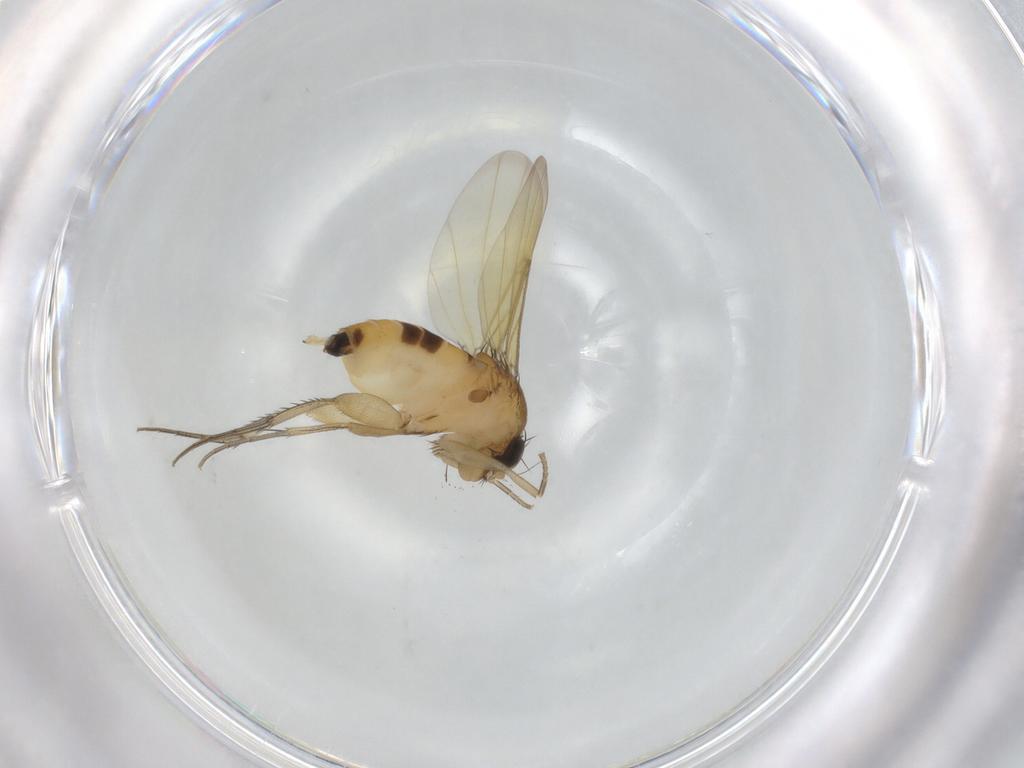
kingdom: Animalia
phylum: Arthropoda
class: Insecta
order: Diptera
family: Phoridae
